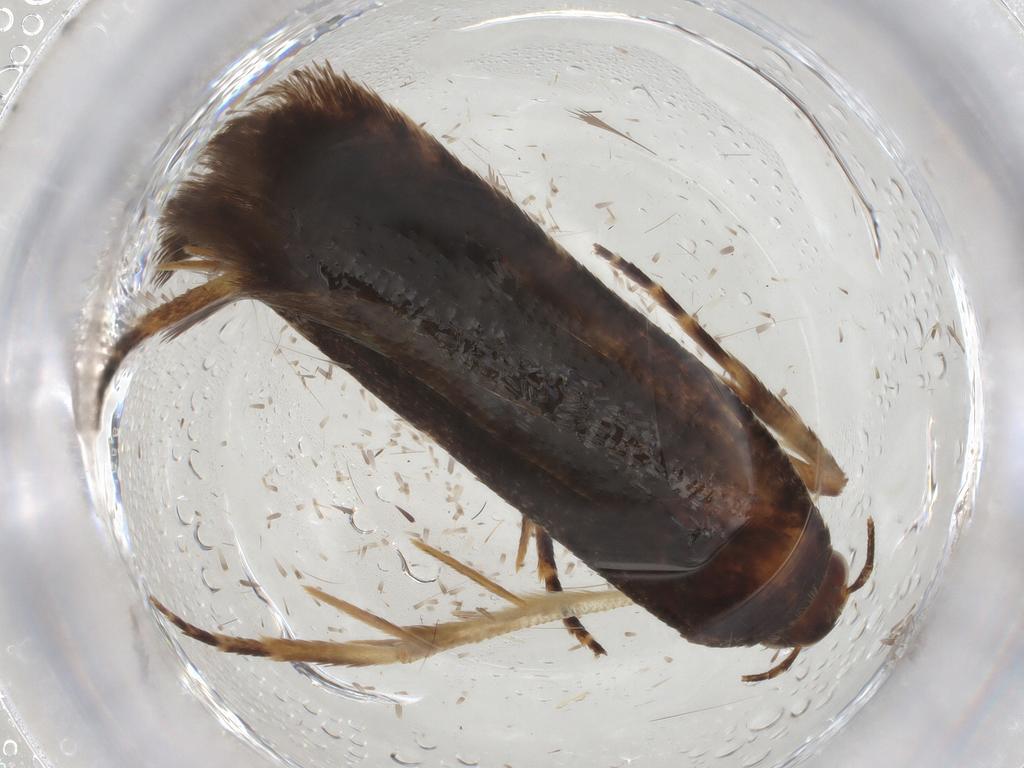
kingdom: Animalia
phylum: Arthropoda
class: Insecta
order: Lepidoptera
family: Gelechiidae
